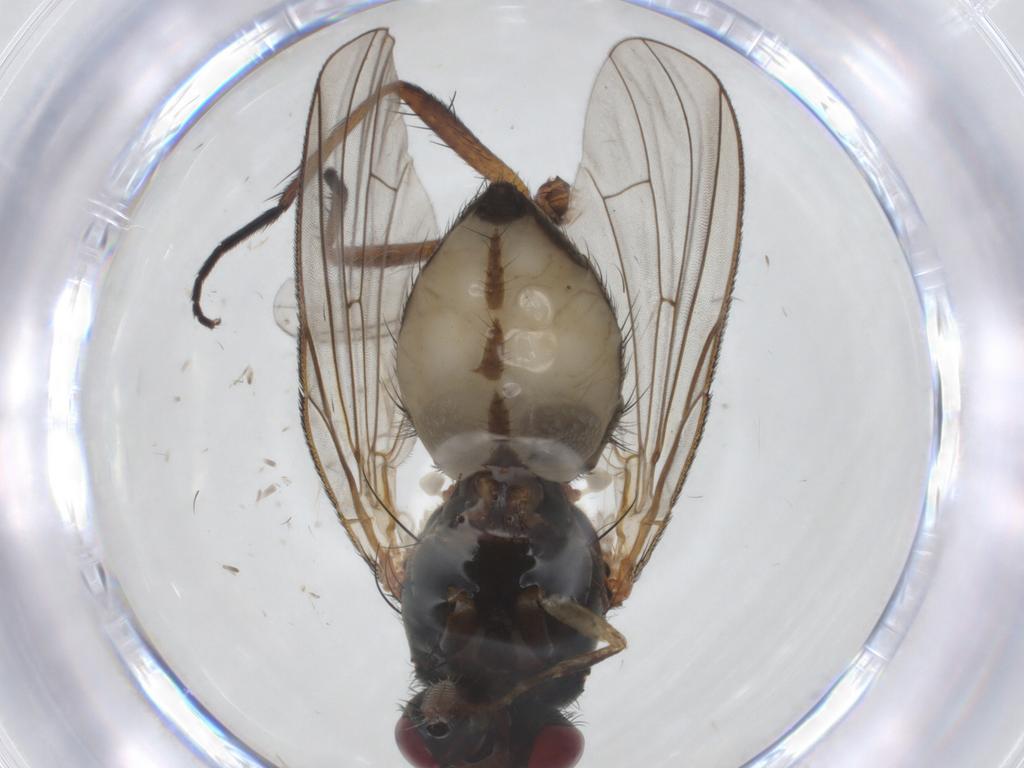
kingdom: Animalia
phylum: Arthropoda
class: Insecta
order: Diptera
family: Anthomyiidae
